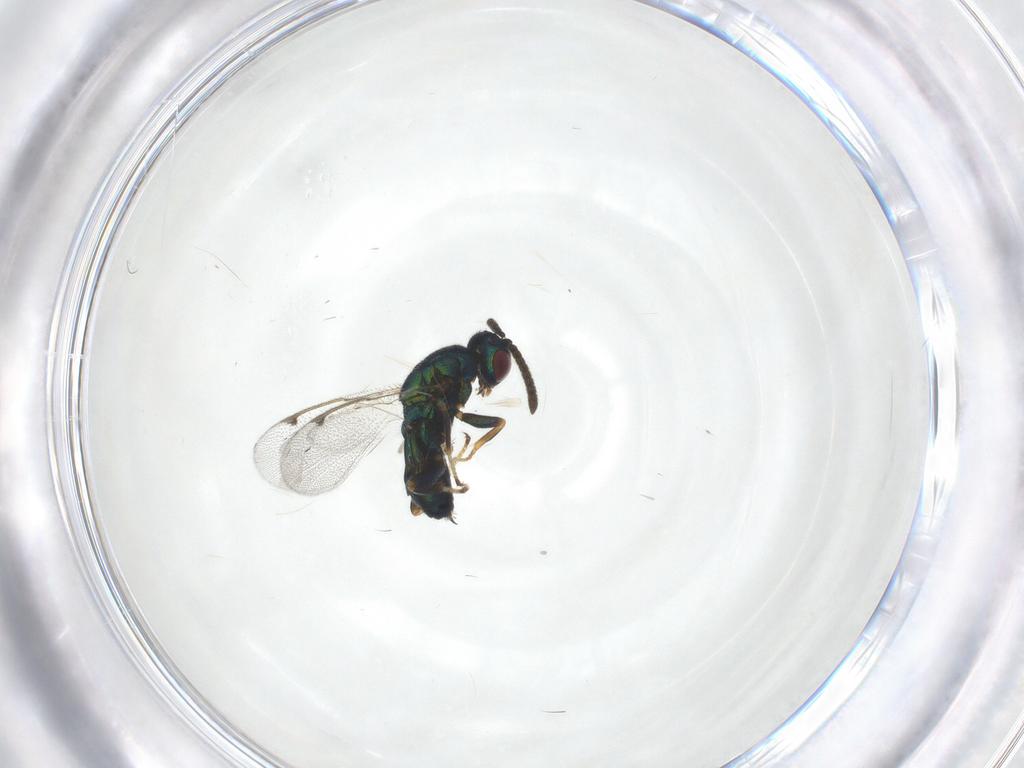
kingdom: Animalia
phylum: Arthropoda
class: Insecta
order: Hymenoptera
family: Torymidae
